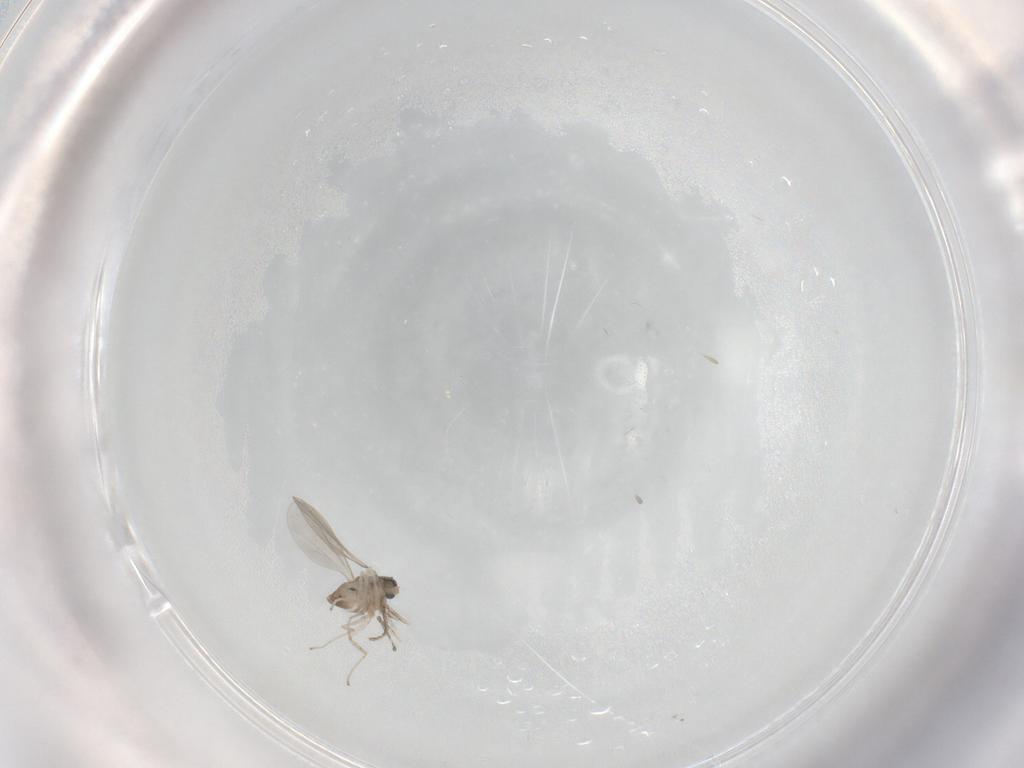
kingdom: Animalia
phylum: Arthropoda
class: Insecta
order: Diptera
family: Cecidomyiidae
